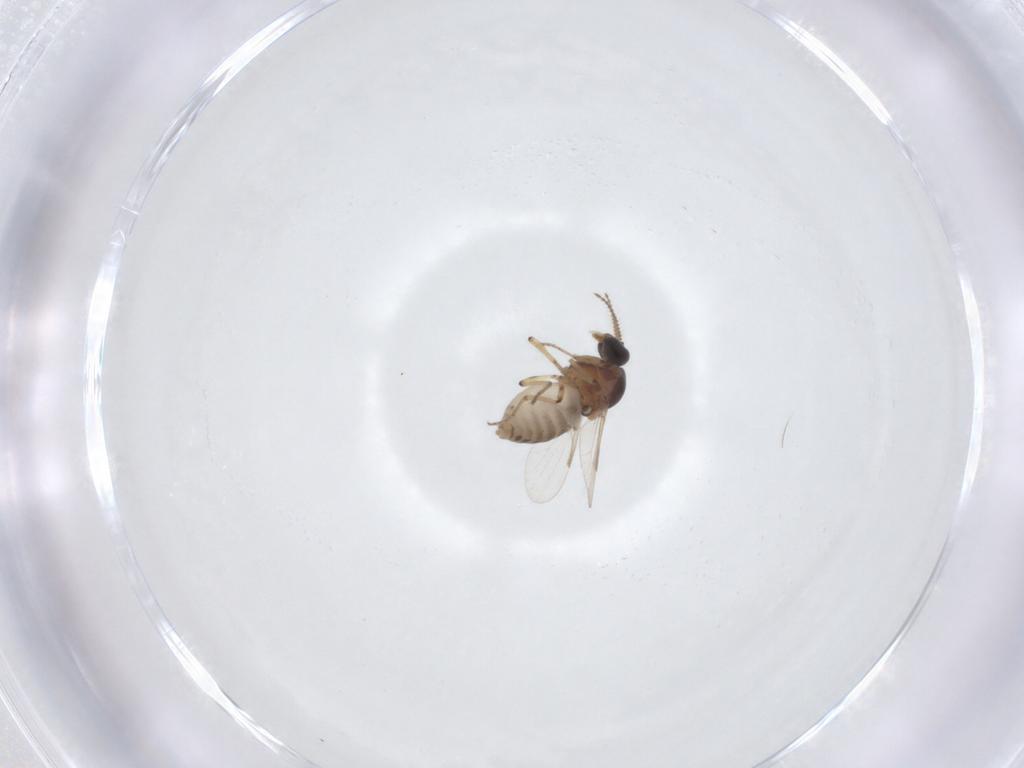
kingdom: Animalia
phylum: Arthropoda
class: Insecta
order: Diptera
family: Ceratopogonidae
